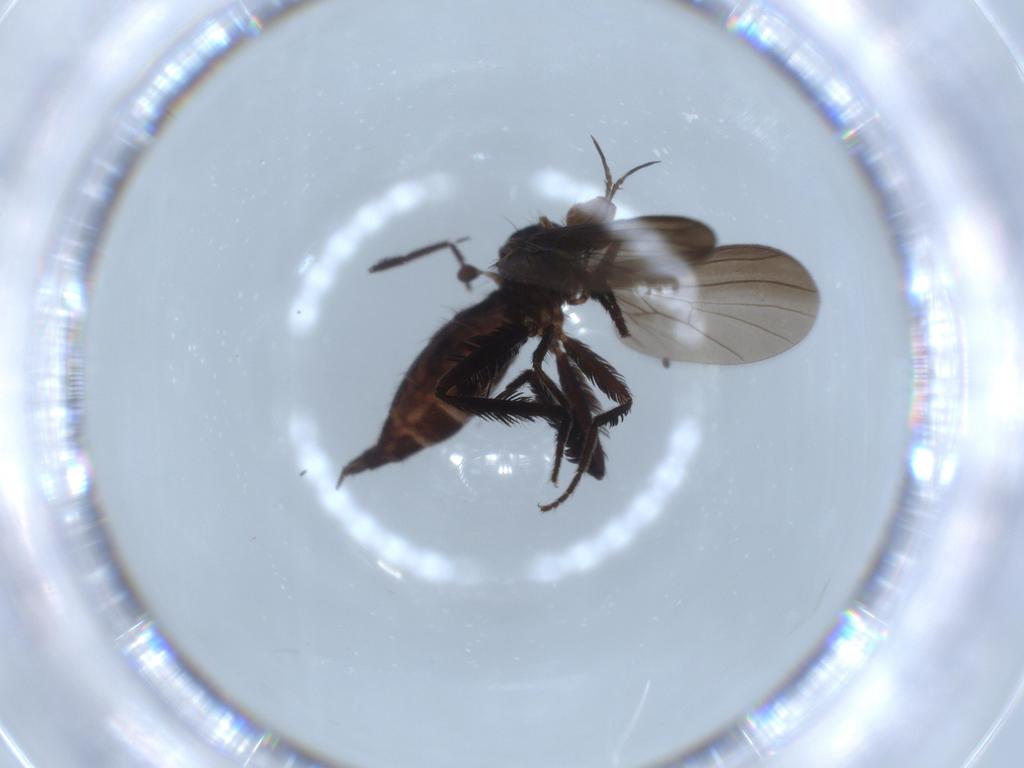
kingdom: Animalia
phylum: Arthropoda
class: Insecta
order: Diptera
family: Empididae
